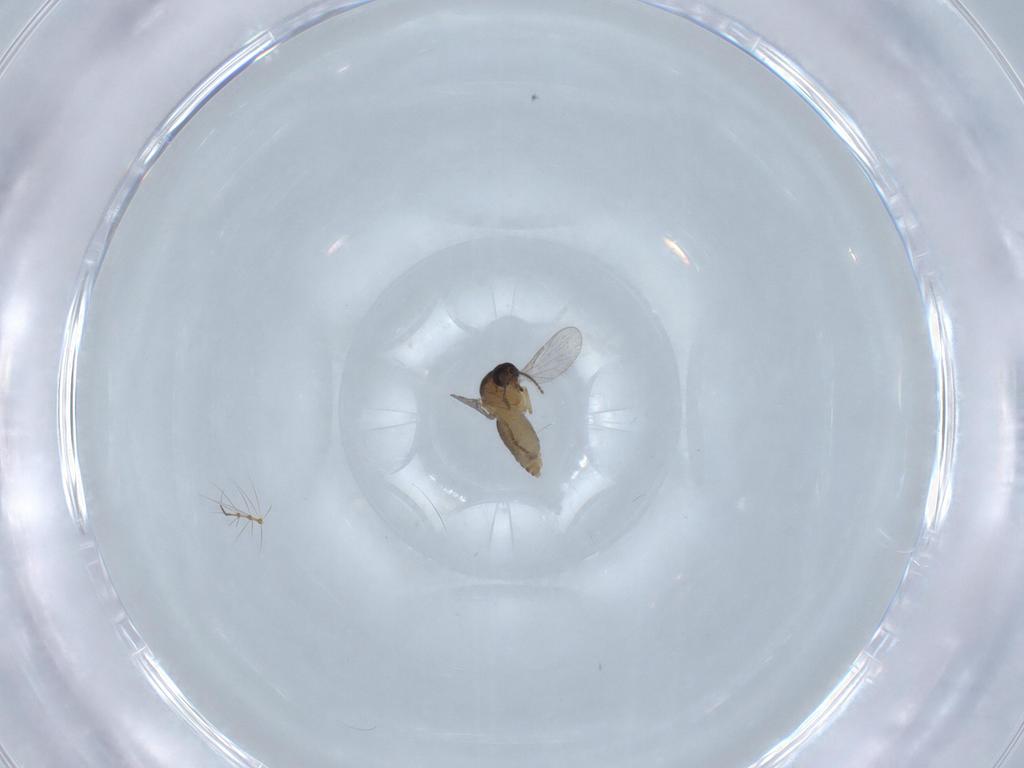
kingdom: Animalia
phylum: Arthropoda
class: Insecta
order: Diptera
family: Ceratopogonidae
